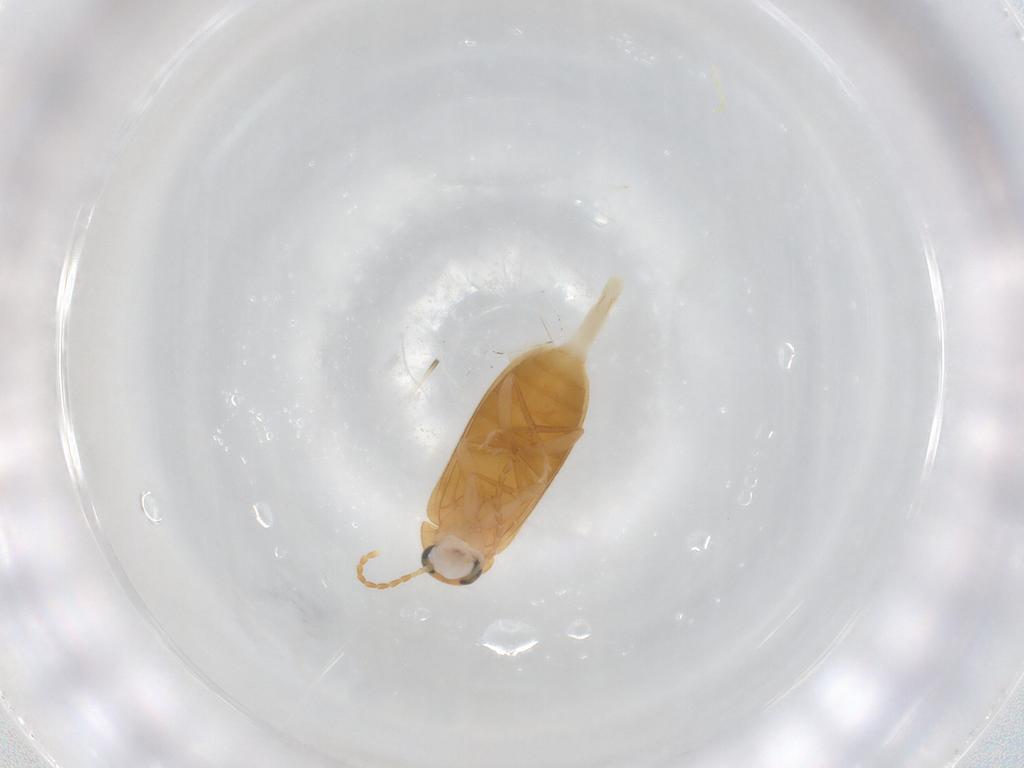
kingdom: Animalia
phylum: Arthropoda
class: Insecta
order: Coleoptera
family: Scraptiidae
